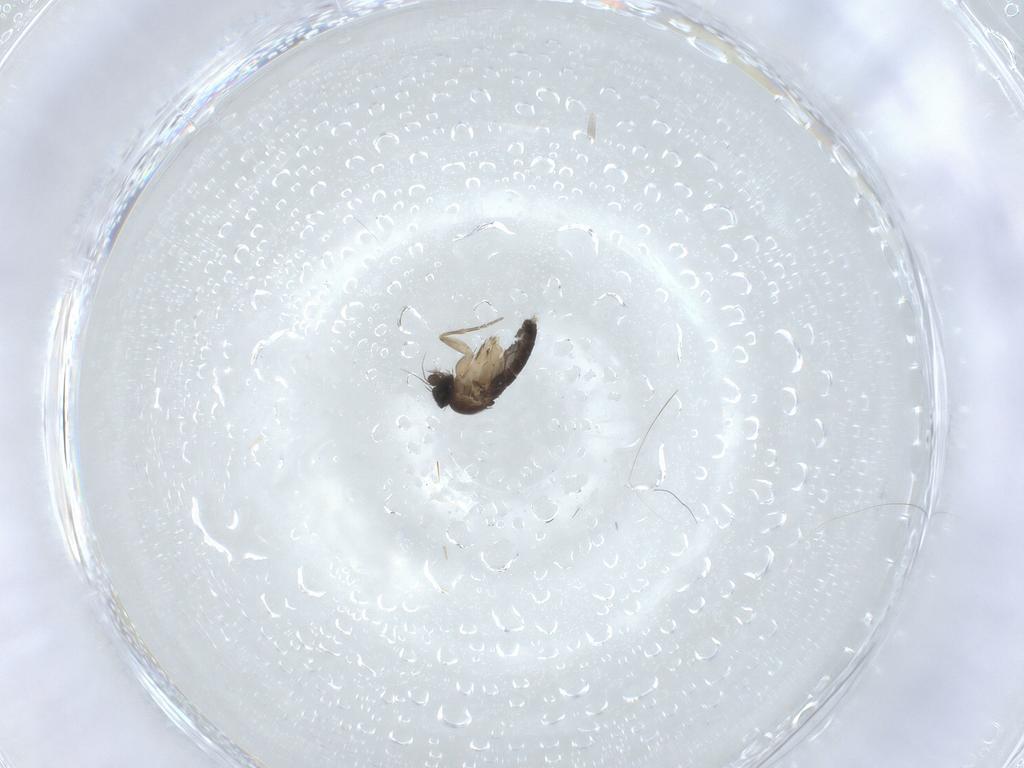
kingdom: Animalia
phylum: Arthropoda
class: Insecta
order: Diptera
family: Phoridae
